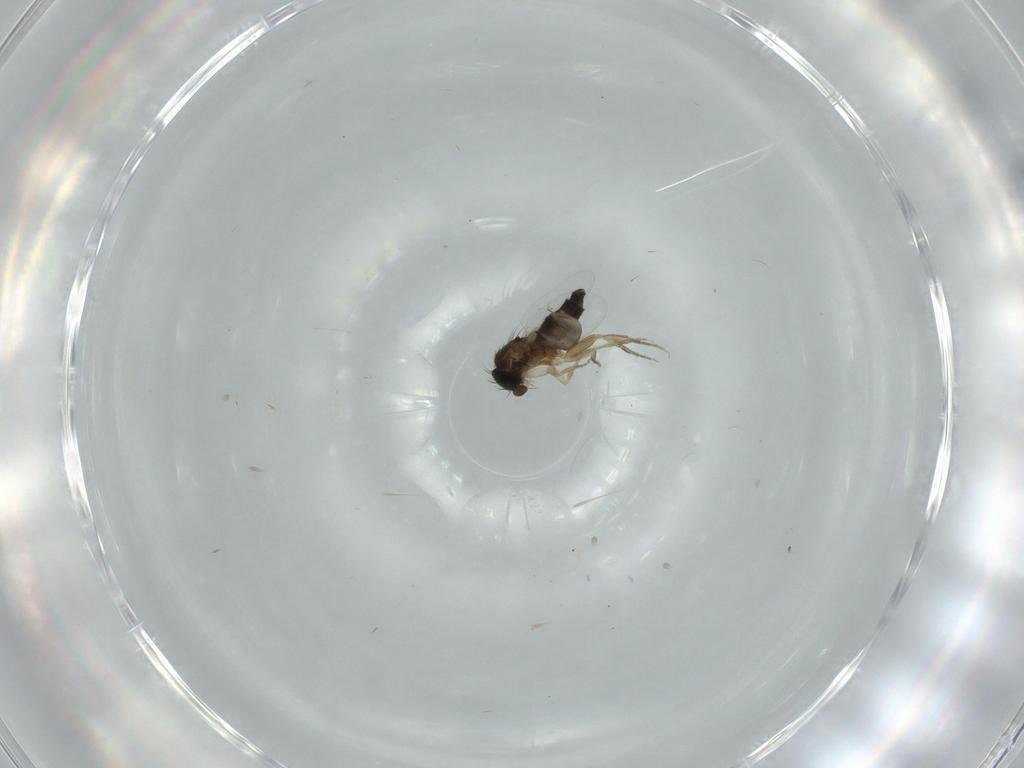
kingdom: Animalia
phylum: Arthropoda
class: Insecta
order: Diptera
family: Phoridae
